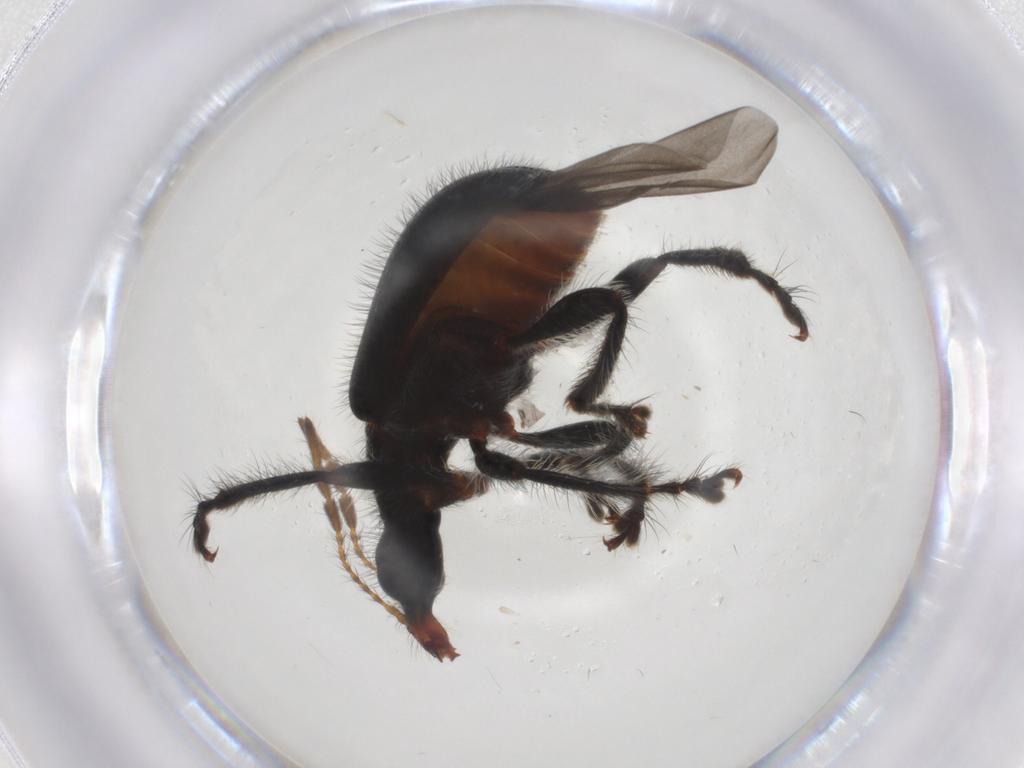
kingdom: Animalia
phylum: Arthropoda
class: Insecta
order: Coleoptera
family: Attelabidae
